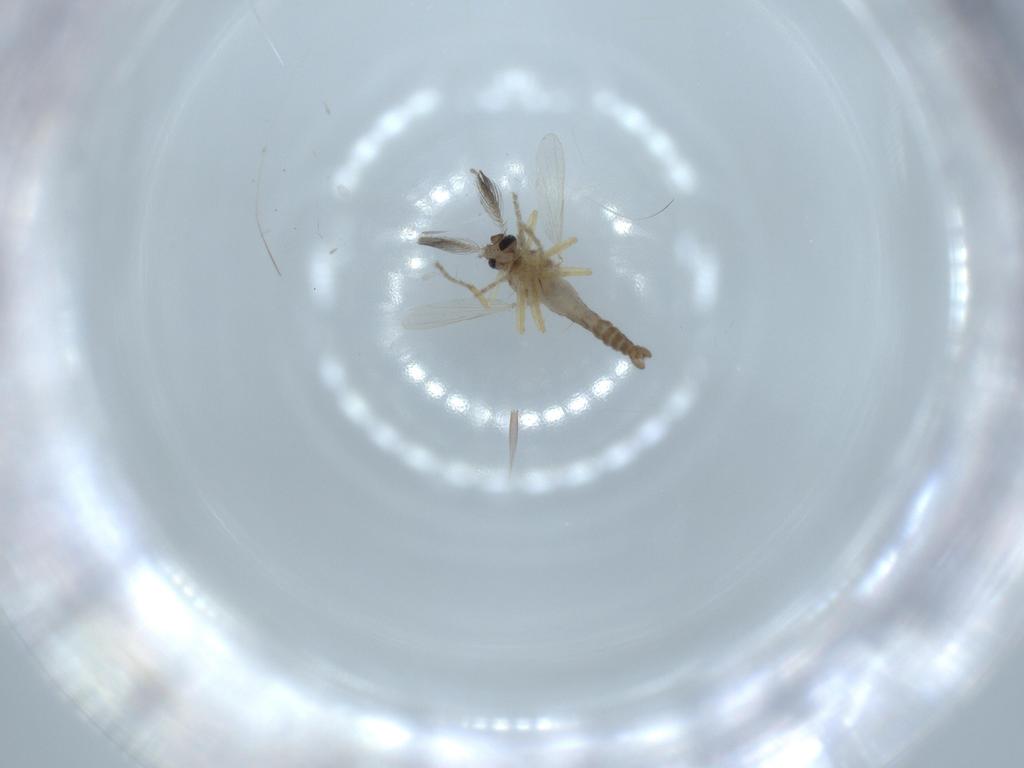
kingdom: Animalia
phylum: Arthropoda
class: Insecta
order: Diptera
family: Ceratopogonidae
